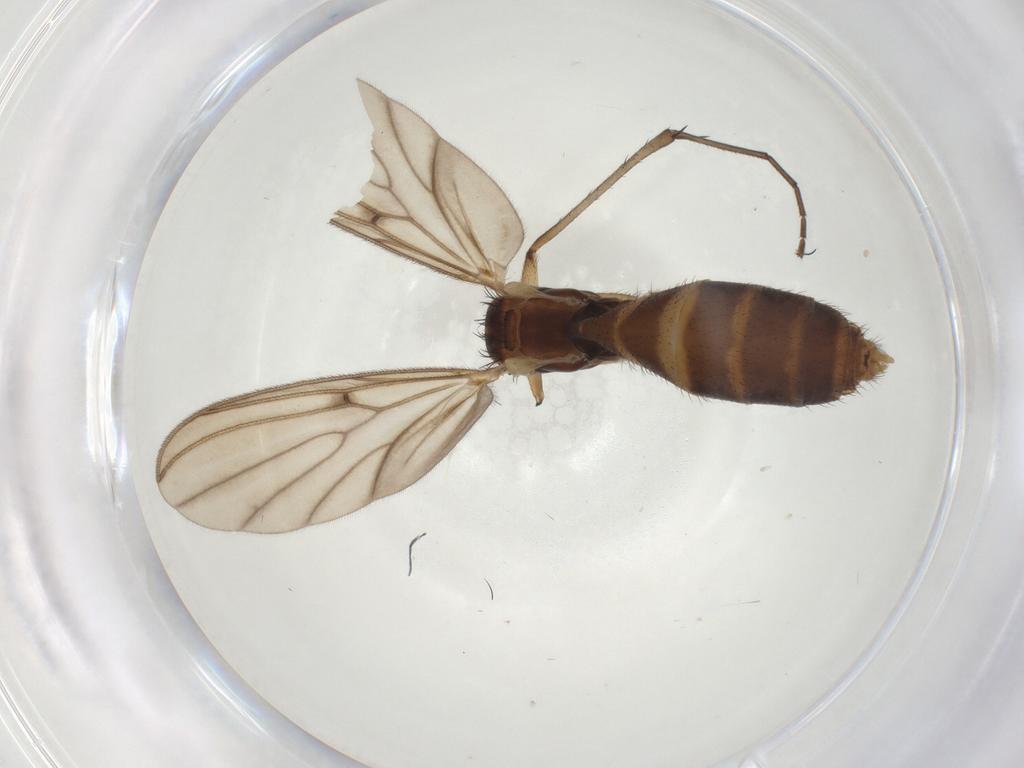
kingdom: Animalia
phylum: Arthropoda
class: Insecta
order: Diptera
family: Mycetophilidae
